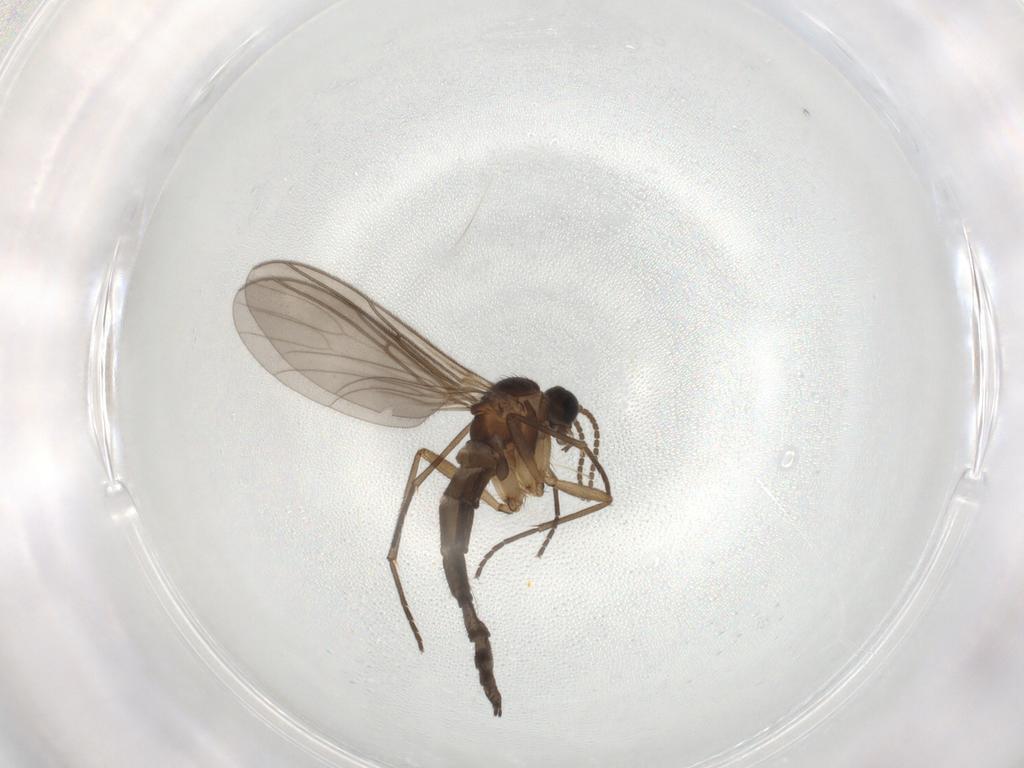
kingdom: Animalia
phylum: Arthropoda
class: Insecta
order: Diptera
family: Sciaridae
